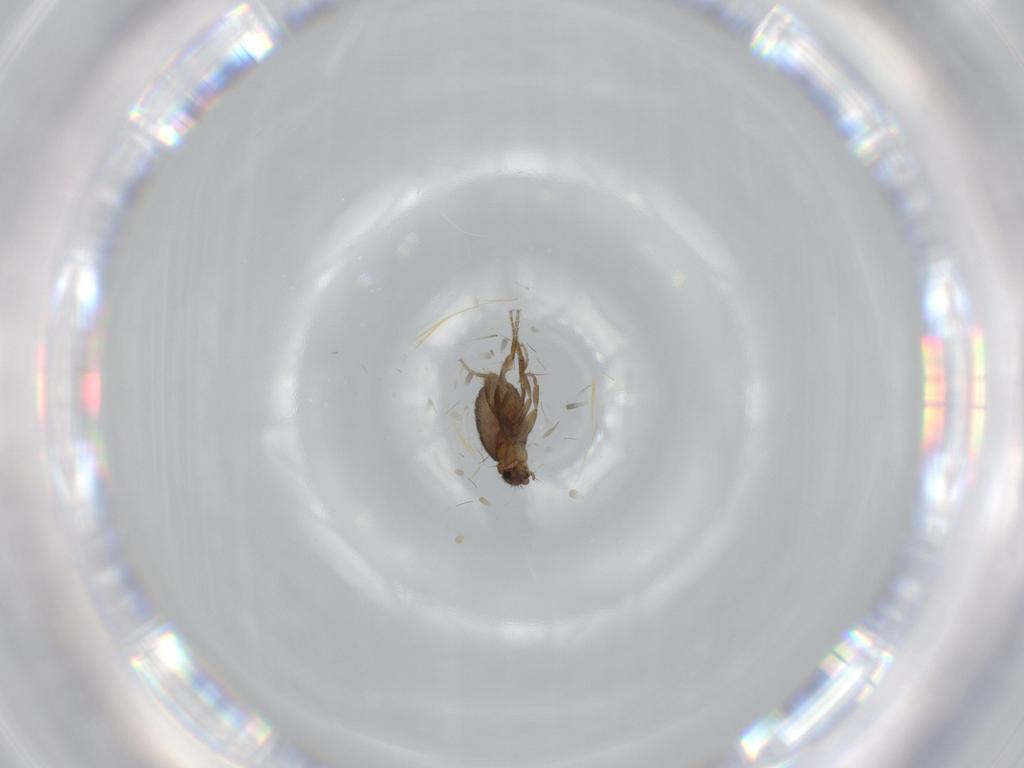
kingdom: Animalia
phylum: Arthropoda
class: Insecta
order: Diptera
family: Phoridae
